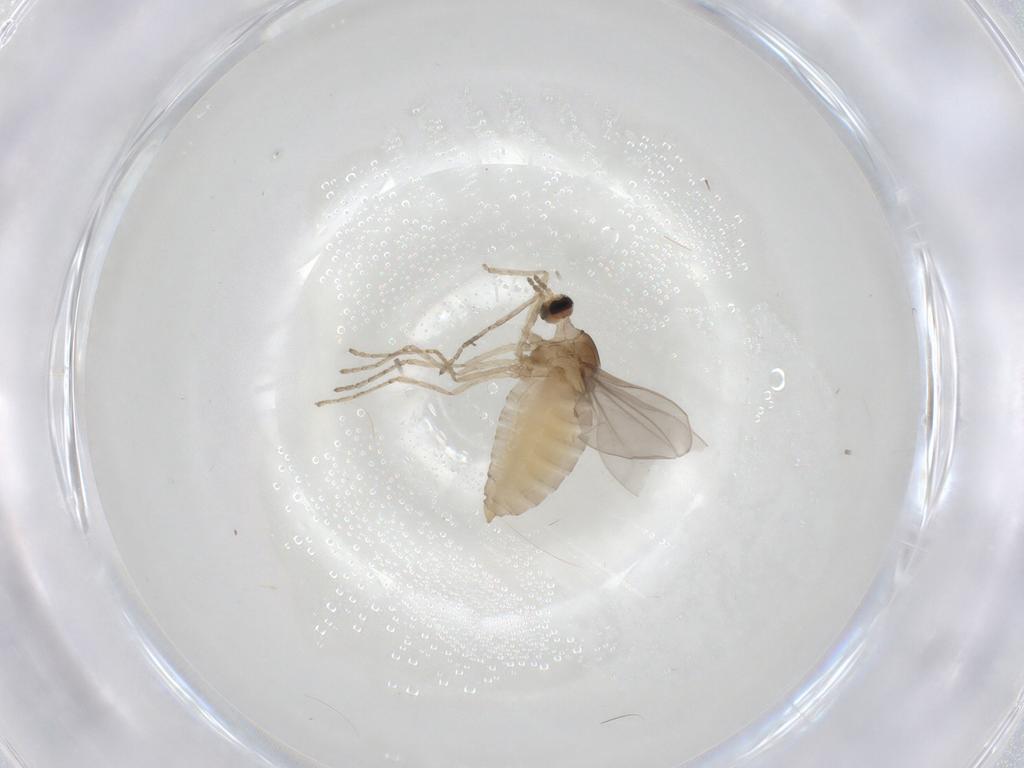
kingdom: Animalia
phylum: Arthropoda
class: Insecta
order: Diptera
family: Cecidomyiidae
